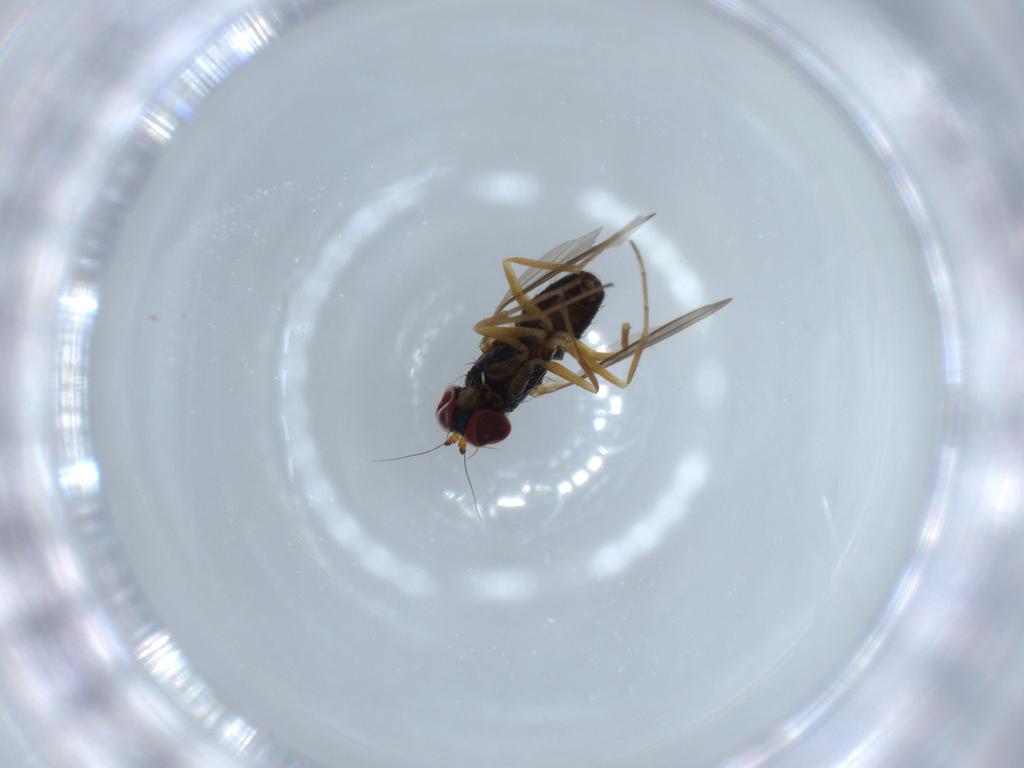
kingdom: Animalia
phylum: Arthropoda
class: Insecta
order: Diptera
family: Dolichopodidae
